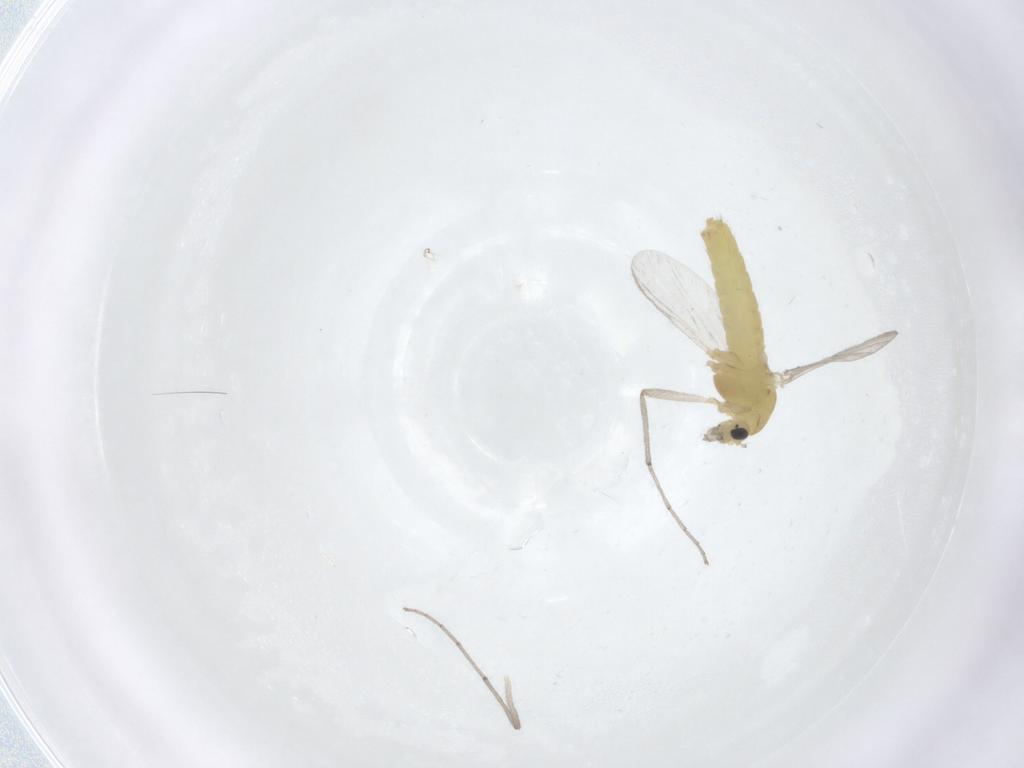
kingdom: Animalia
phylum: Arthropoda
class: Insecta
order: Diptera
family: Chironomidae
